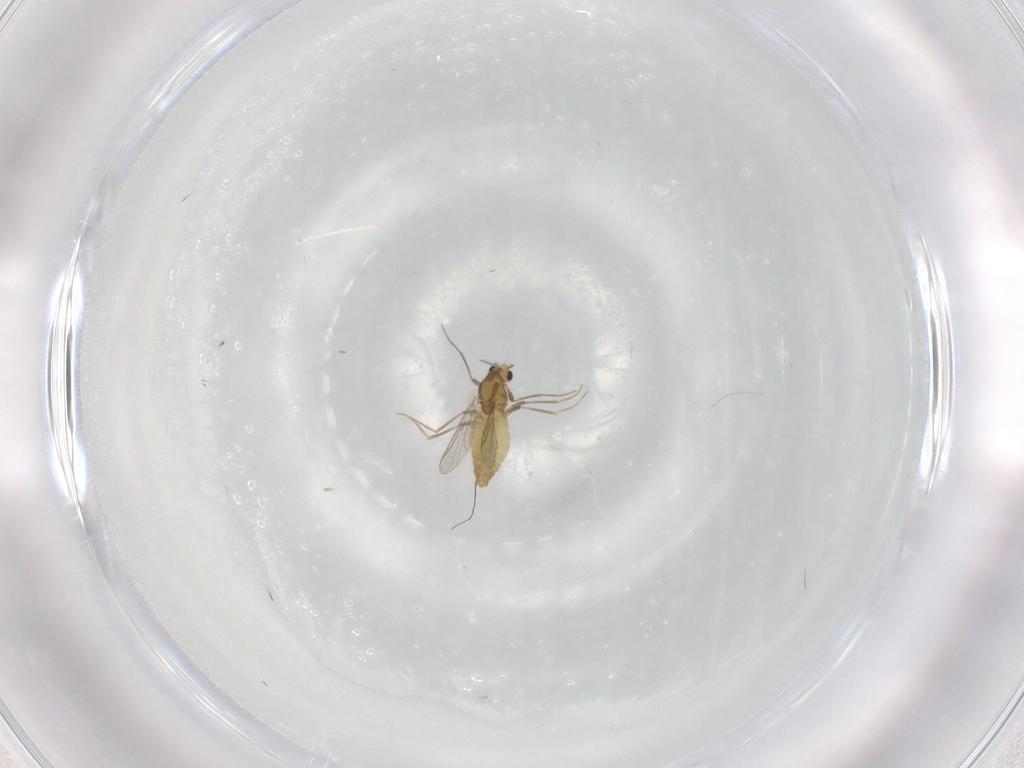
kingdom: Animalia
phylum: Arthropoda
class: Insecta
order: Diptera
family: Chironomidae
